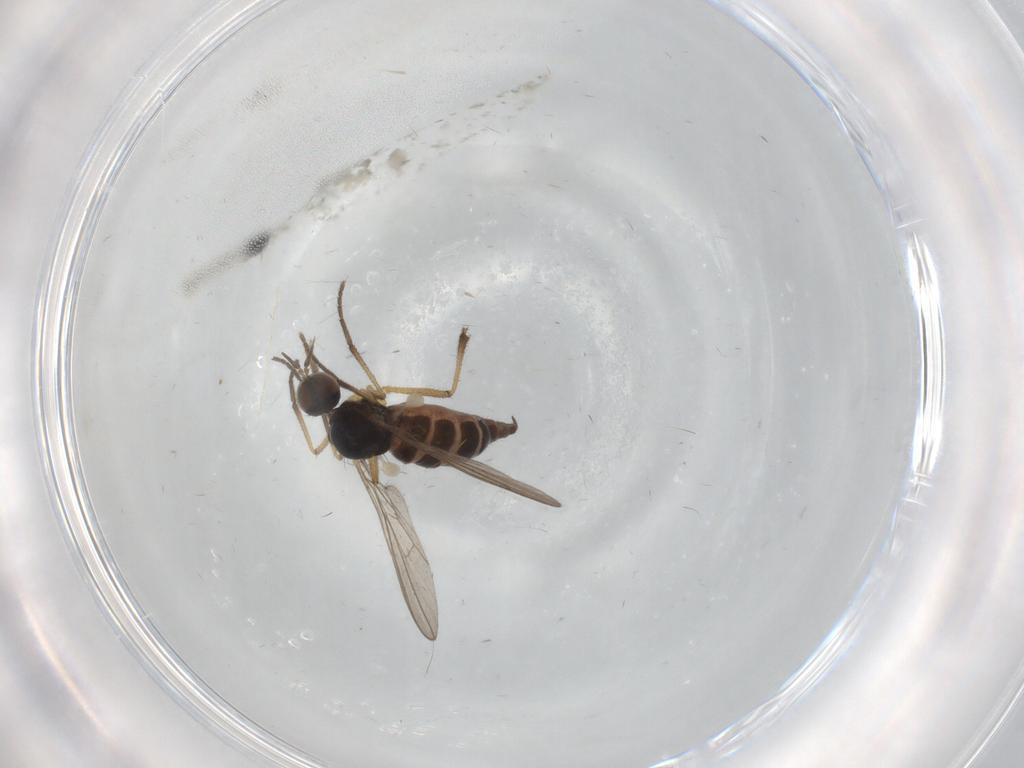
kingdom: Animalia
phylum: Arthropoda
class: Insecta
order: Diptera
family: Empididae
